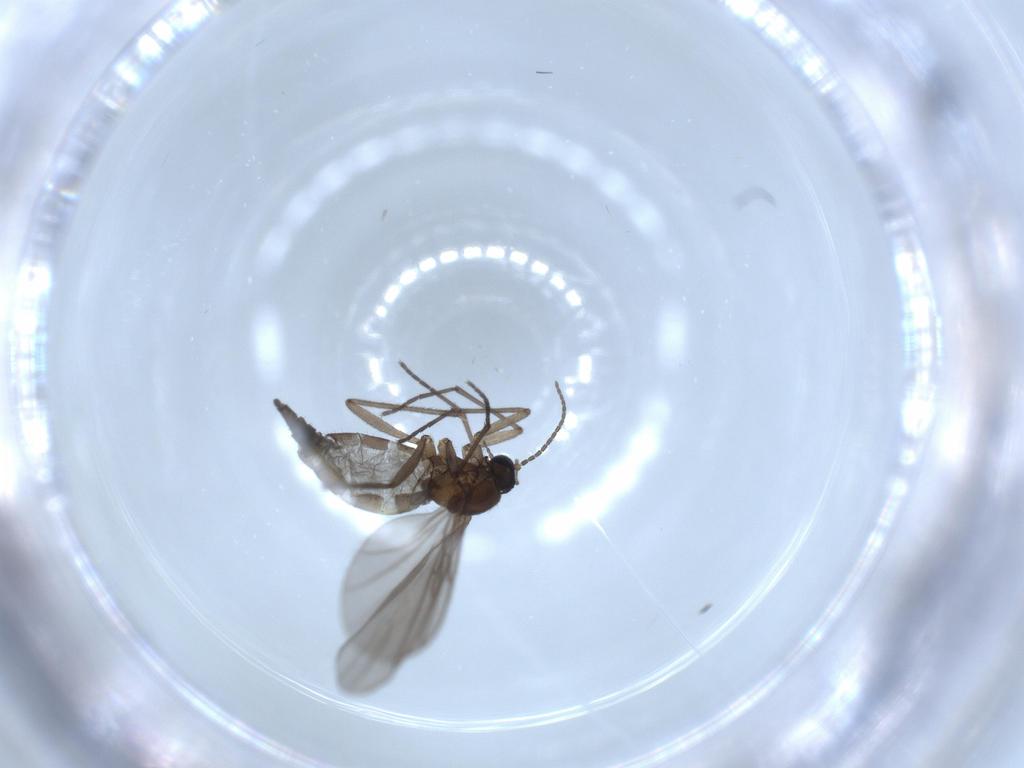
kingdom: Animalia
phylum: Arthropoda
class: Insecta
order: Diptera
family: Sciaridae
